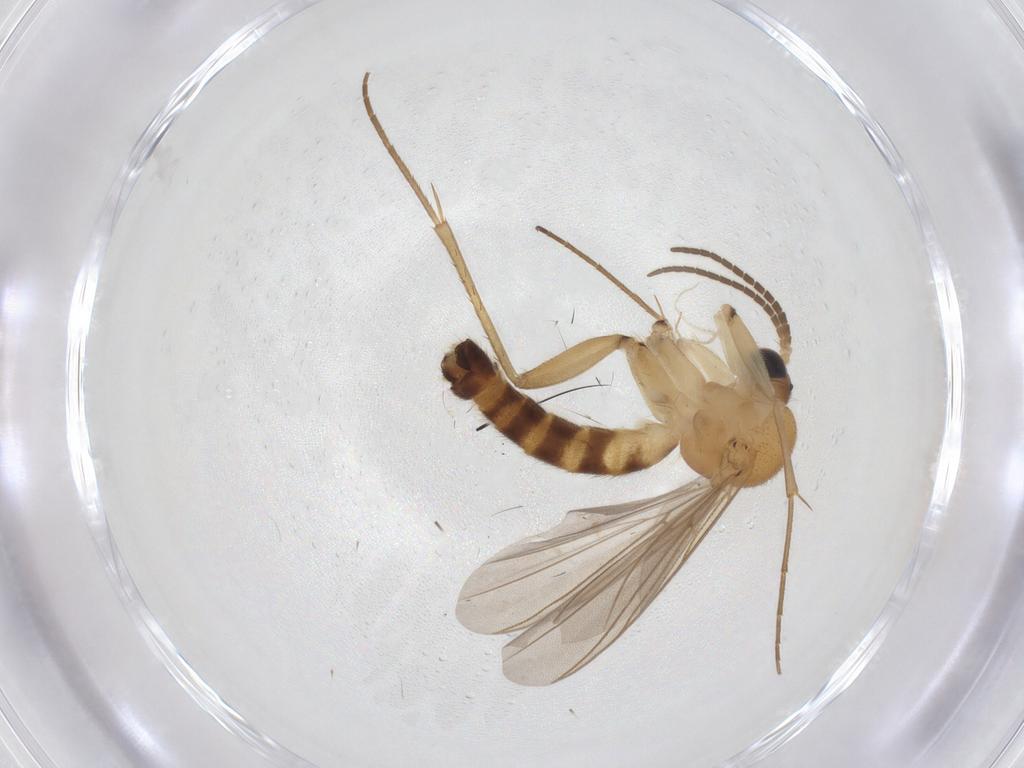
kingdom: Animalia
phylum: Arthropoda
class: Insecta
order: Diptera
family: Mycetophilidae
